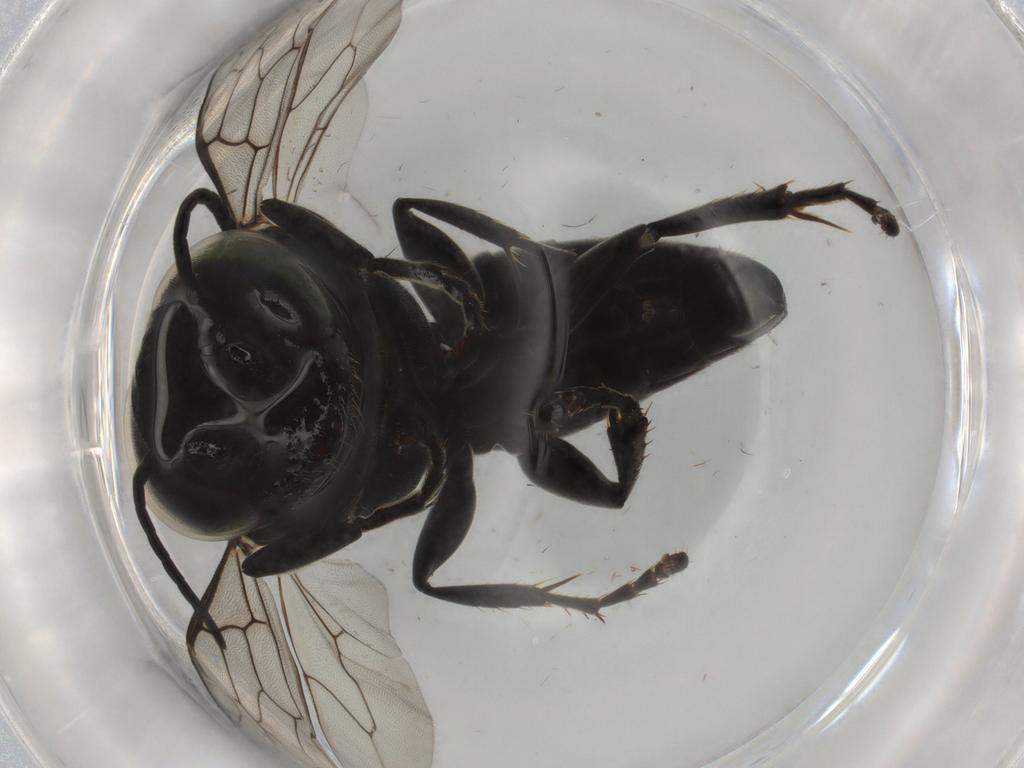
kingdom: Animalia
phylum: Arthropoda
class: Insecta
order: Hymenoptera
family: Crabronidae
